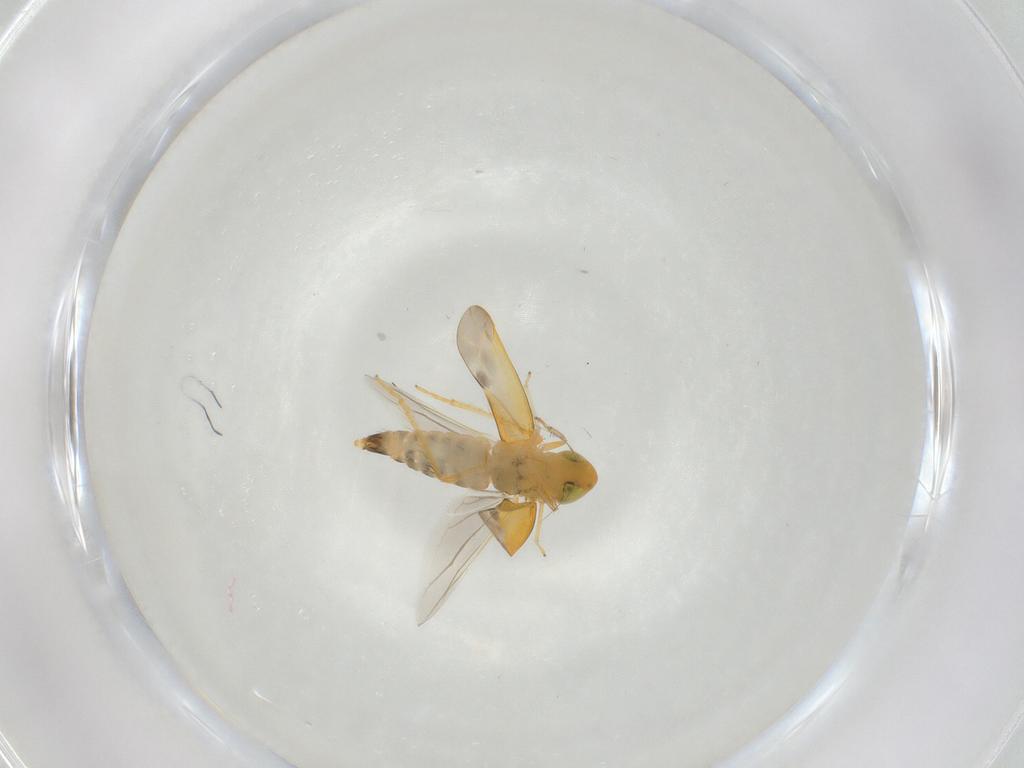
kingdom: Animalia
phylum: Arthropoda
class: Insecta
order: Hemiptera
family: Cicadellidae
